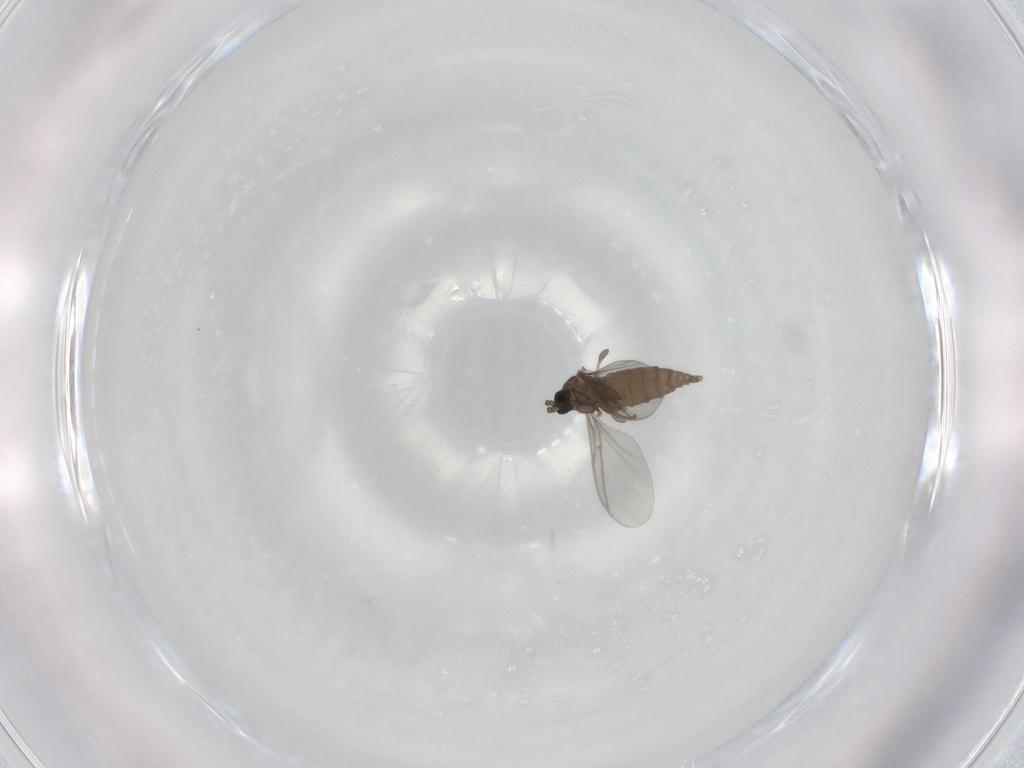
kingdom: Animalia
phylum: Arthropoda
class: Insecta
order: Diptera
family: Sciaridae
